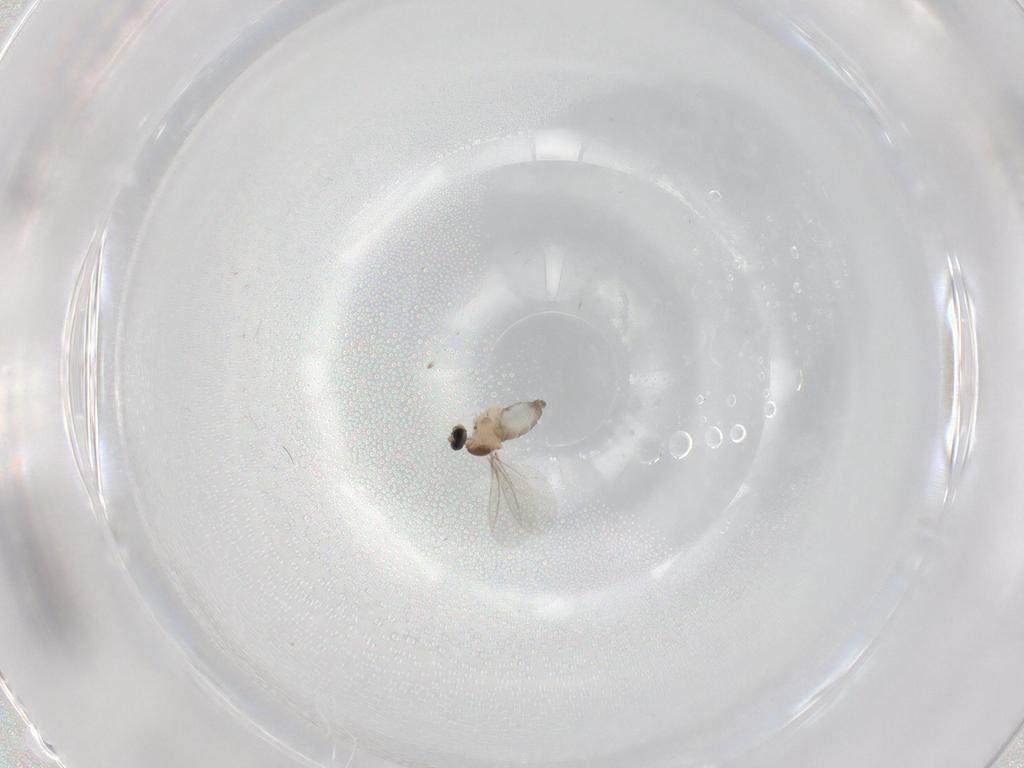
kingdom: Animalia
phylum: Arthropoda
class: Insecta
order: Diptera
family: Cecidomyiidae
